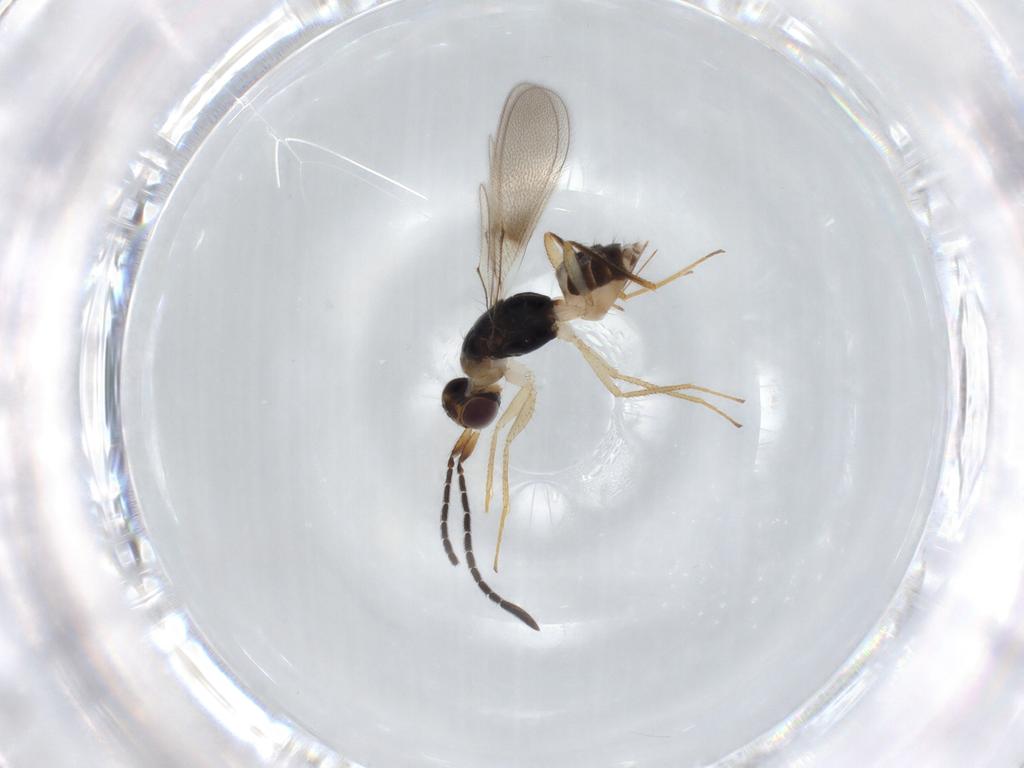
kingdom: Animalia
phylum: Arthropoda
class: Insecta
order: Hymenoptera
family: Mymaridae
